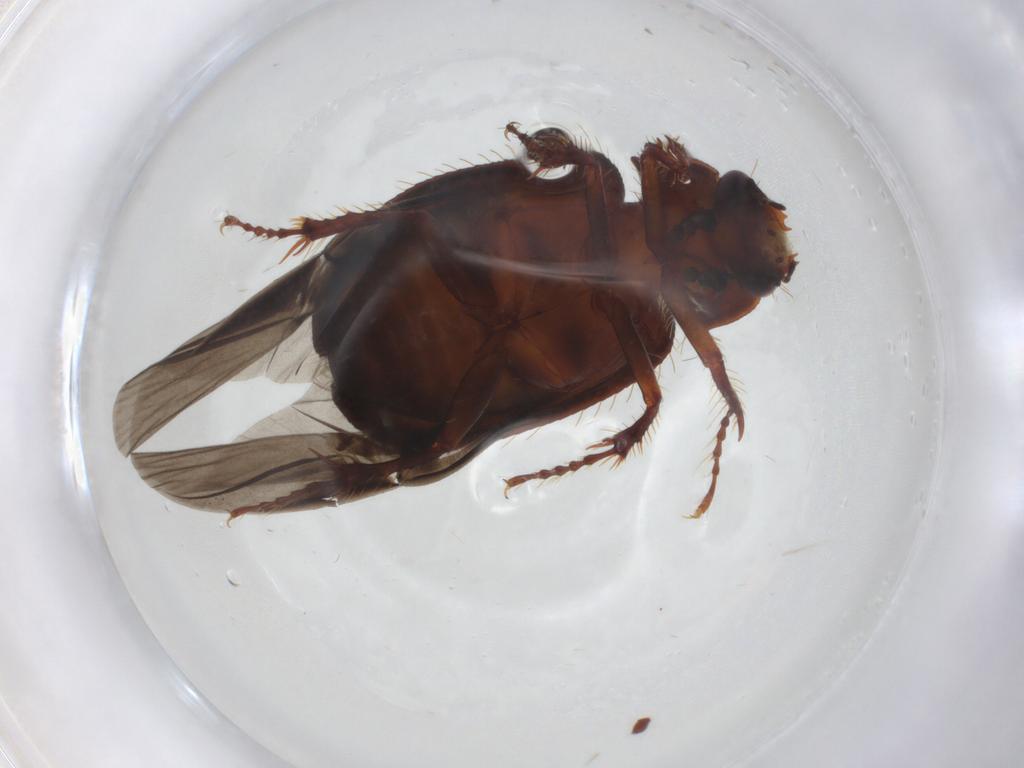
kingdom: Animalia
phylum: Arthropoda
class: Insecta
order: Coleoptera
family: Hybosoridae
